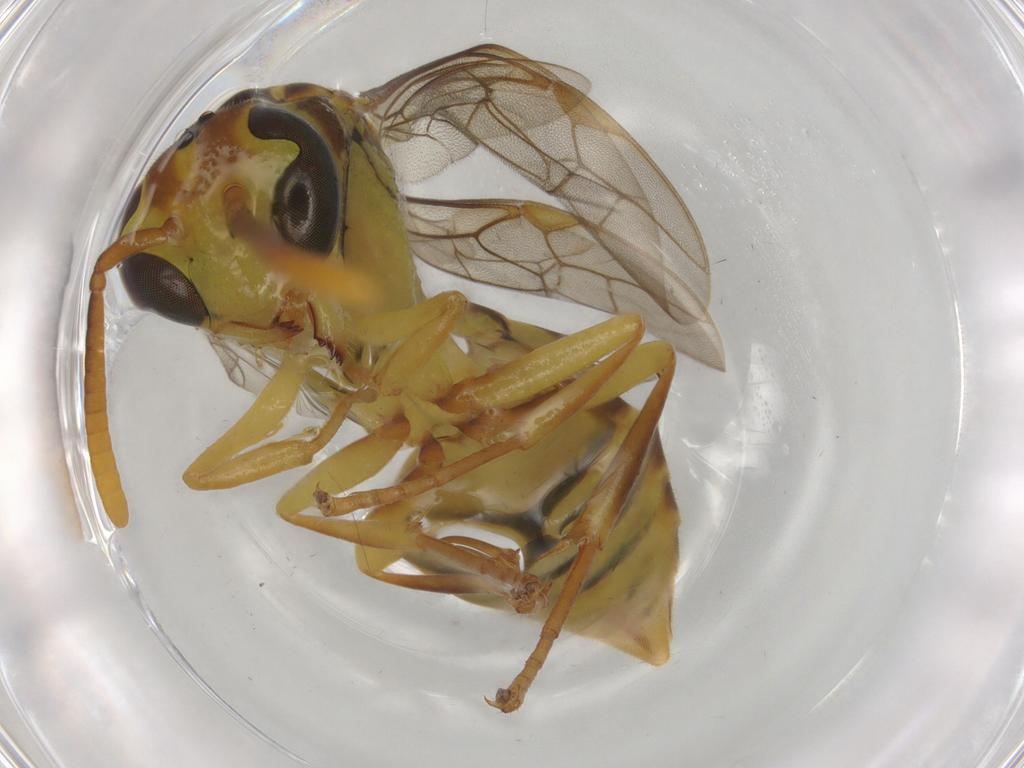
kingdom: Animalia
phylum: Arthropoda
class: Insecta
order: Hymenoptera
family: Vespidae
